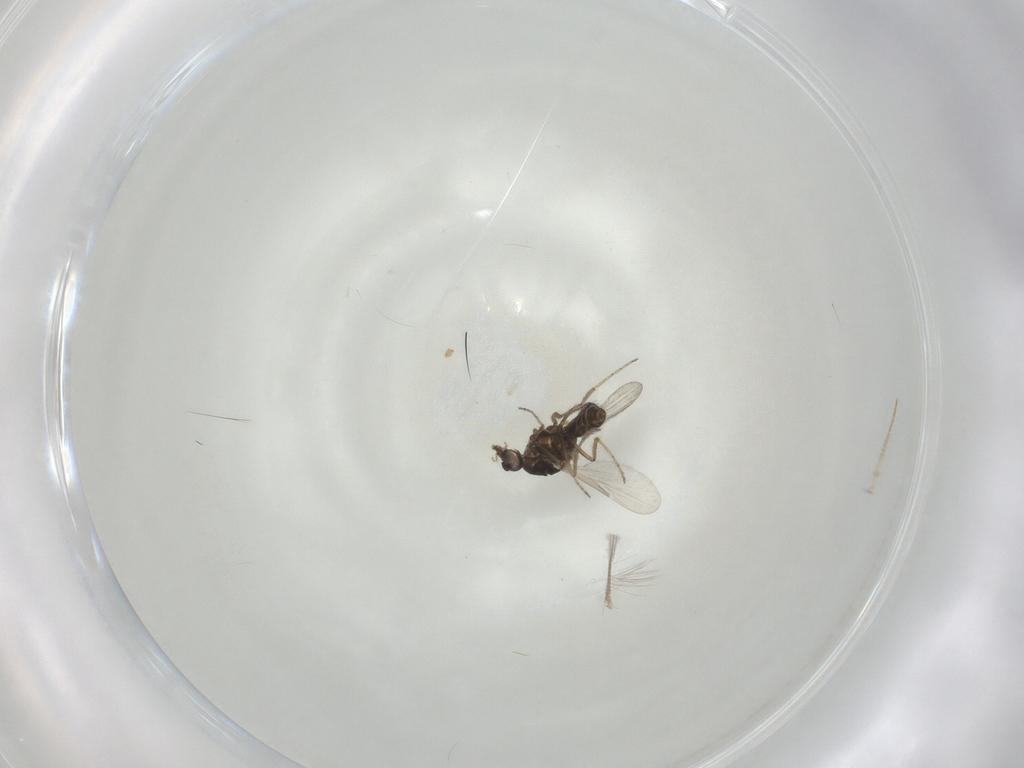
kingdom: Animalia
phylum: Arthropoda
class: Insecta
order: Diptera
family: Ceratopogonidae
